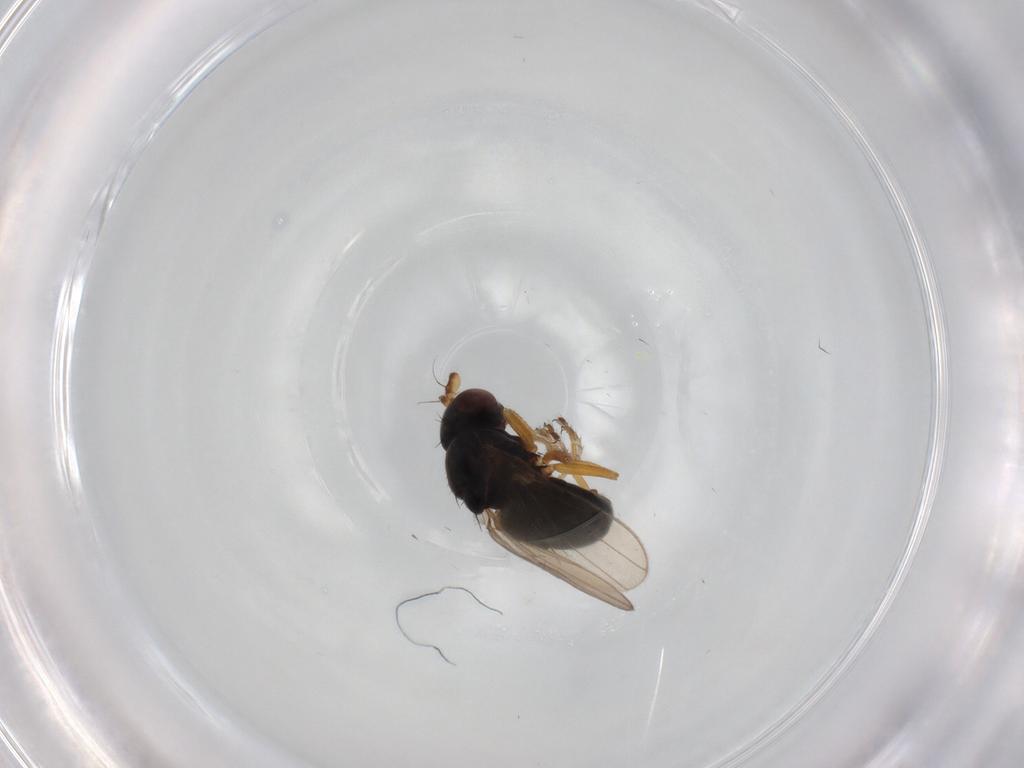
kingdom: Animalia
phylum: Arthropoda
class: Insecta
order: Diptera
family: Ephydridae
